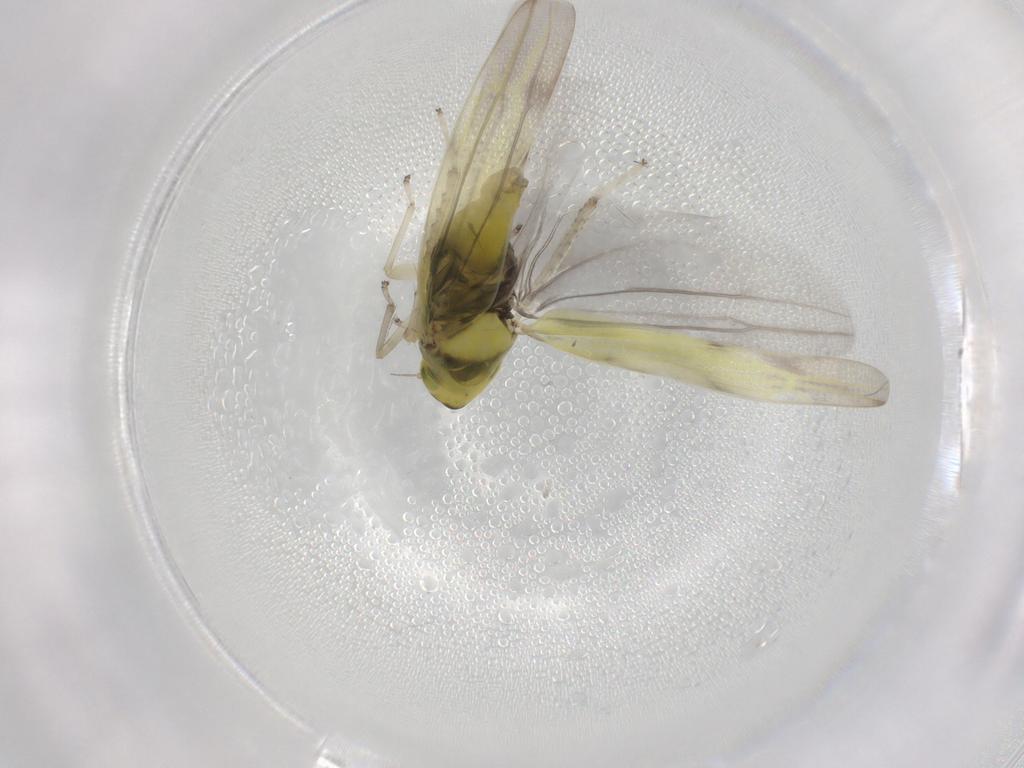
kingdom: Animalia
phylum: Arthropoda
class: Insecta
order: Hemiptera
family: Cicadellidae
